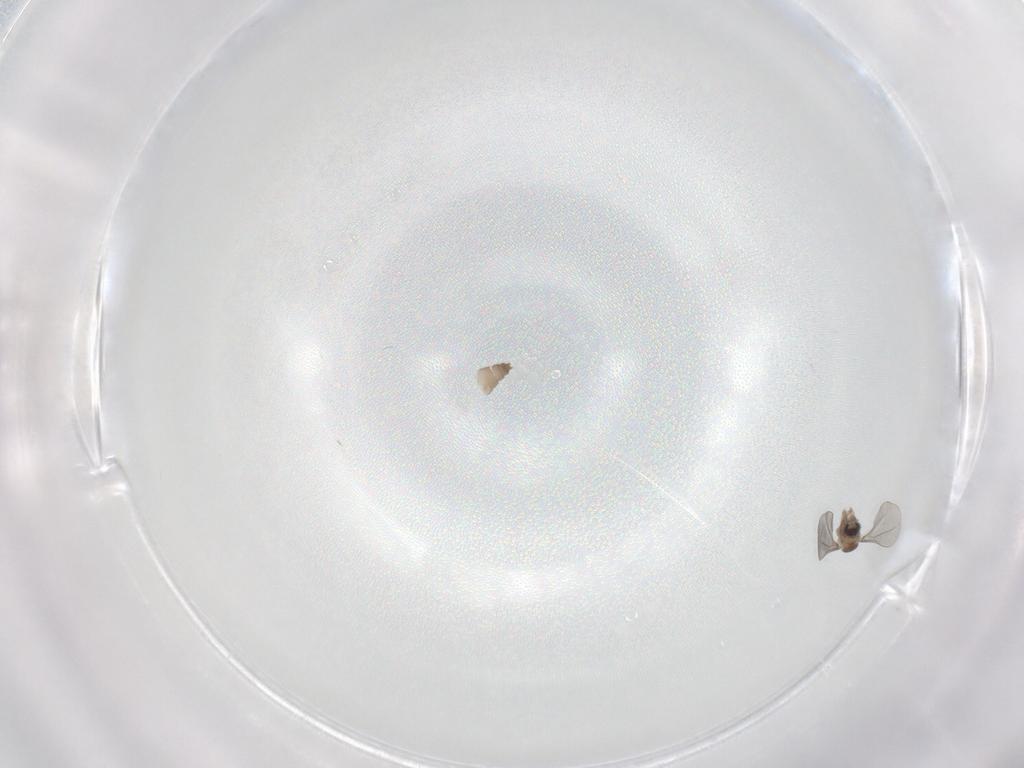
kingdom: Animalia
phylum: Arthropoda
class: Insecta
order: Diptera
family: Cecidomyiidae
